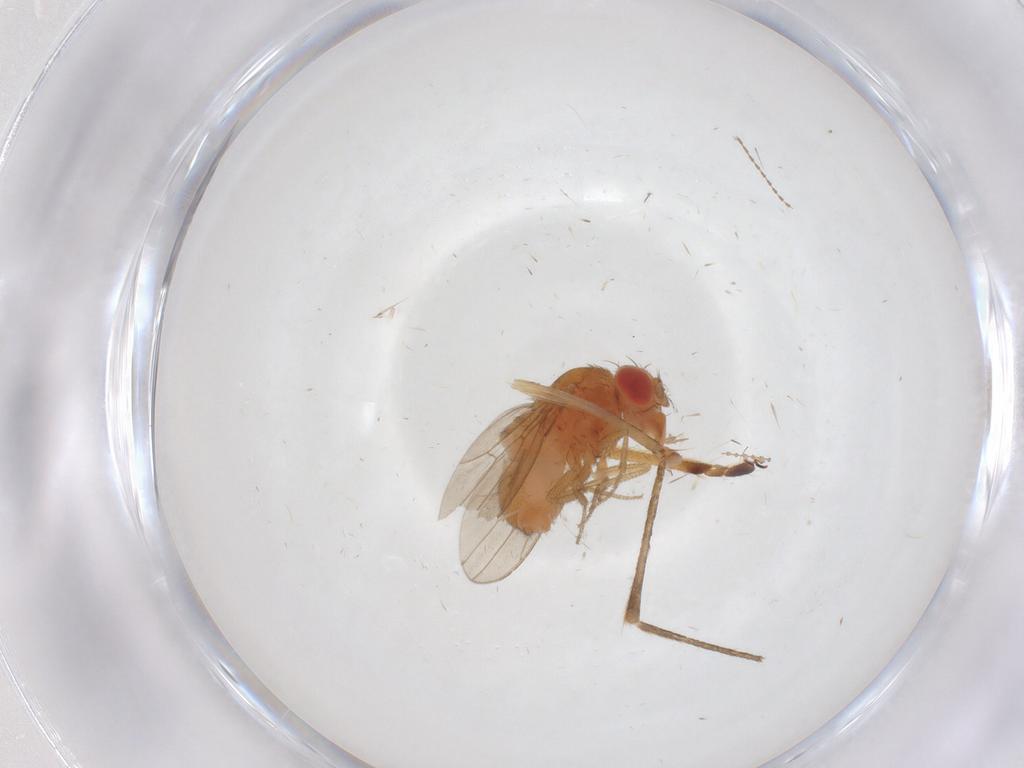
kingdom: Animalia
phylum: Arthropoda
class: Insecta
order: Diptera
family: Drosophilidae
